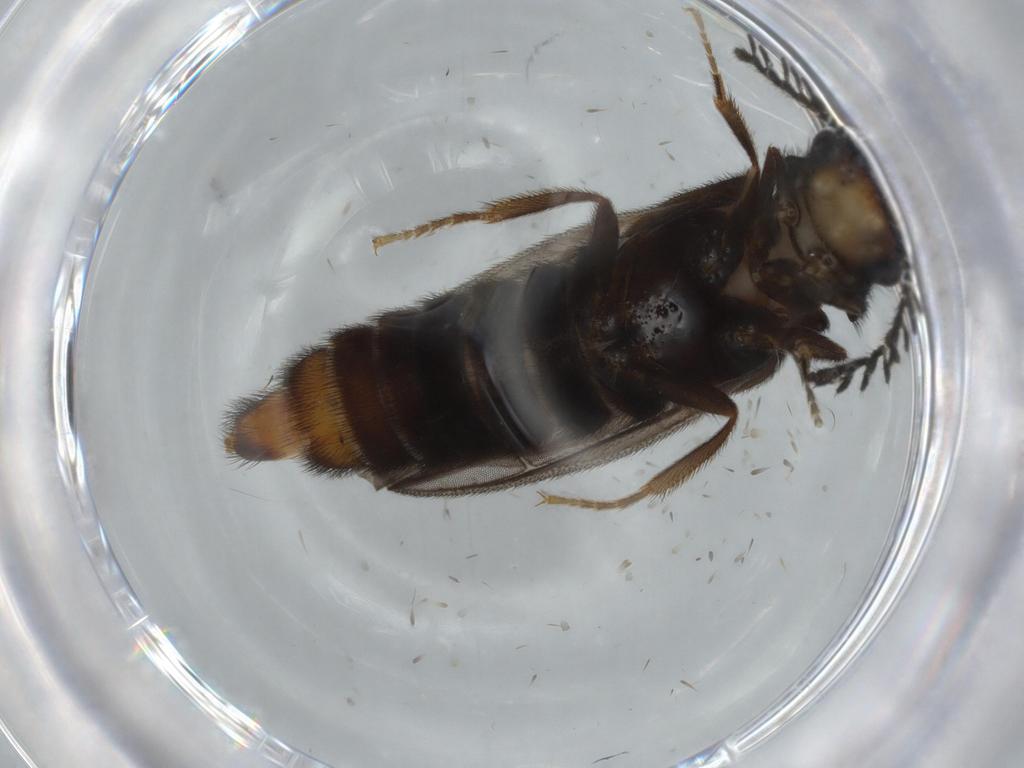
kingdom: Animalia
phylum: Arthropoda
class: Insecta
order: Coleoptera
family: Phengodidae
